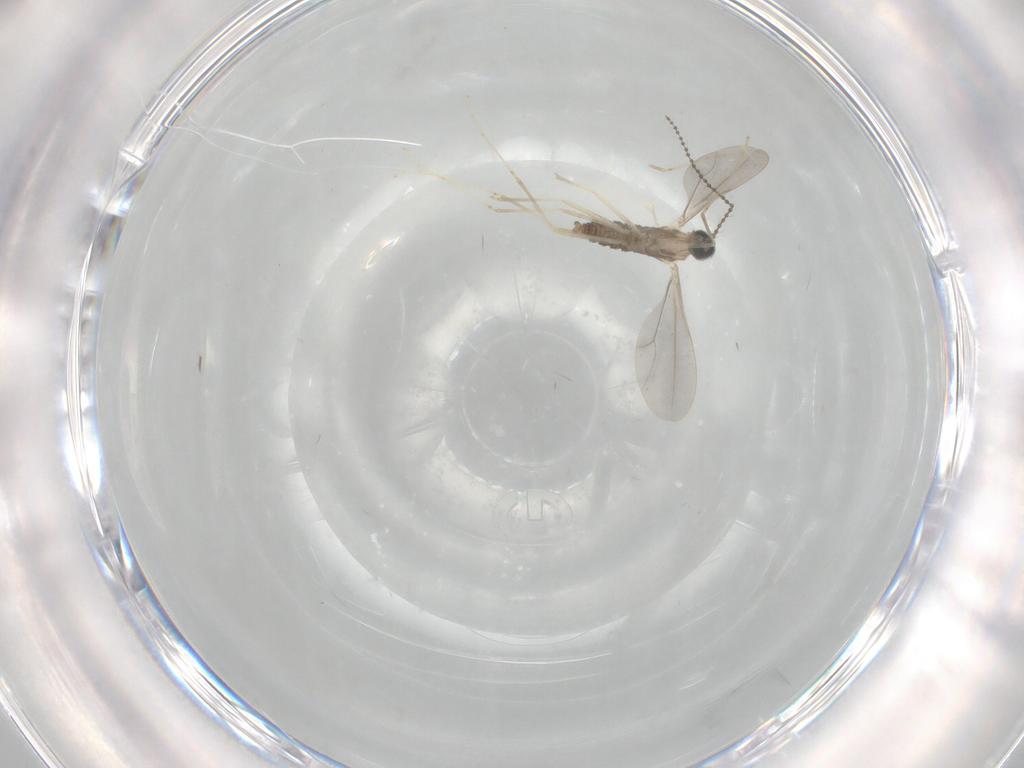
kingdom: Animalia
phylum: Arthropoda
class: Insecta
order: Diptera
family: Cecidomyiidae
